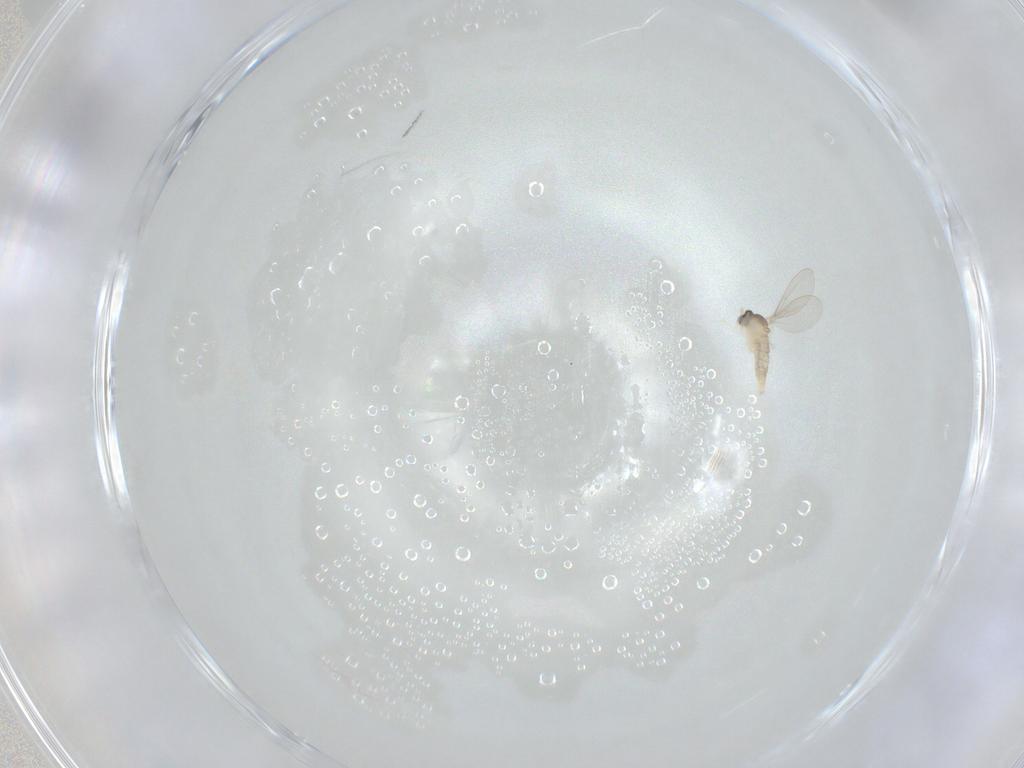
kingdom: Animalia
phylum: Arthropoda
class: Insecta
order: Diptera
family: Cecidomyiidae
